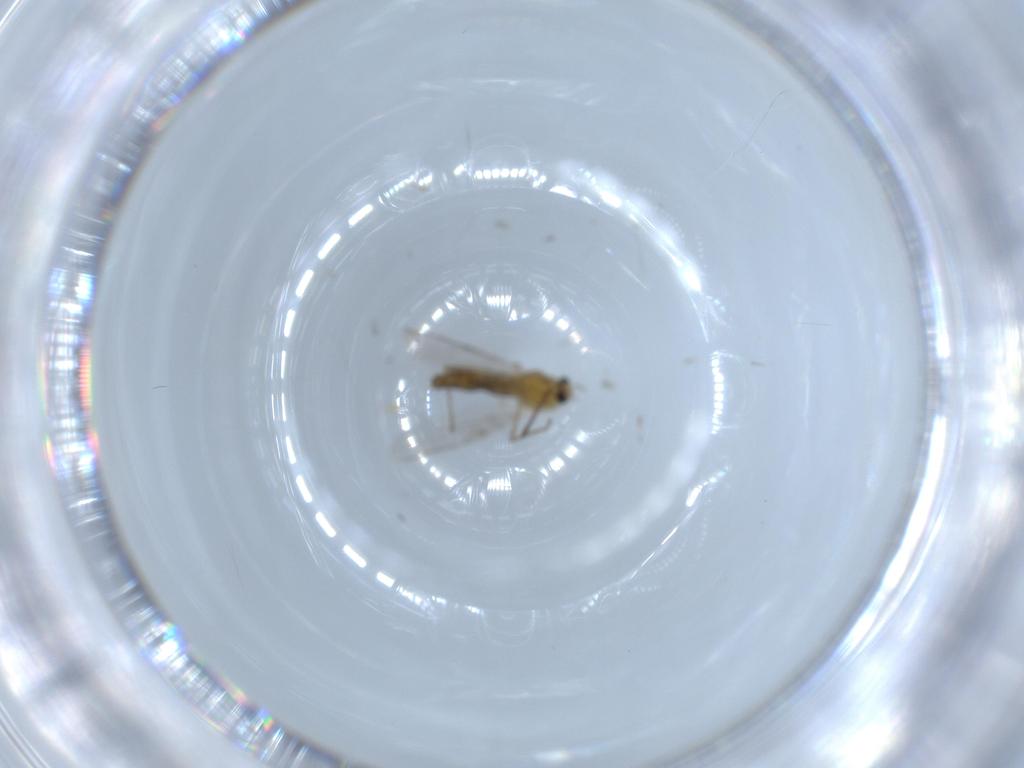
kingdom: Animalia
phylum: Arthropoda
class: Insecta
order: Diptera
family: Chironomidae
